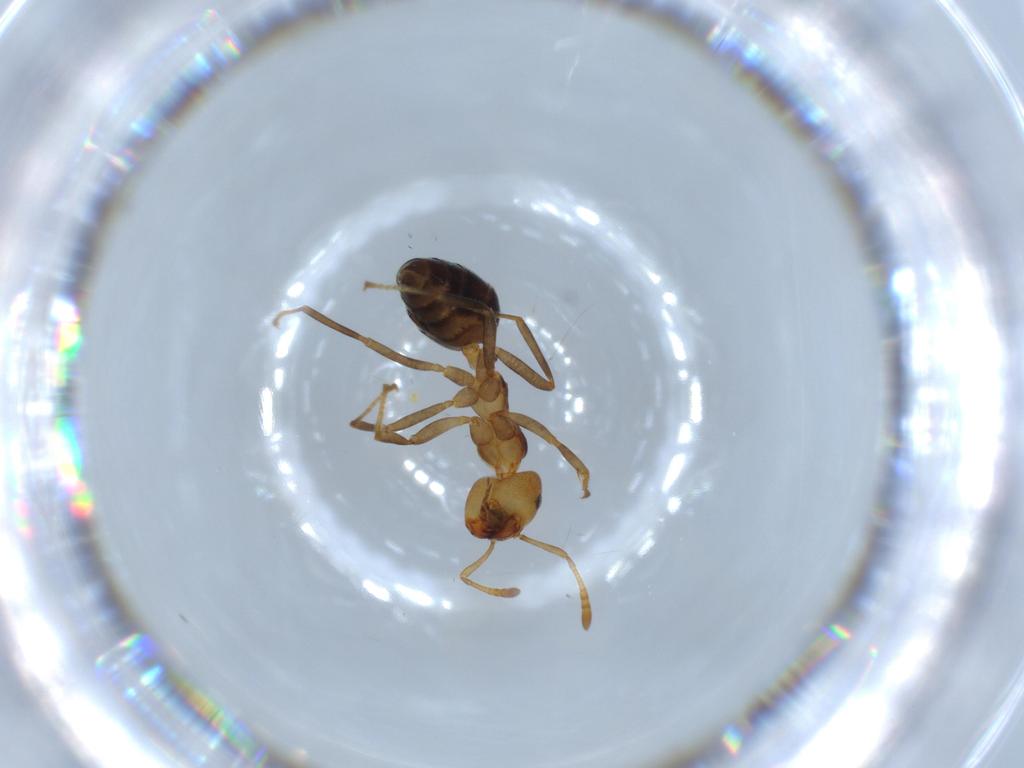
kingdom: Animalia
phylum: Arthropoda
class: Insecta
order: Hymenoptera
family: Formicidae
